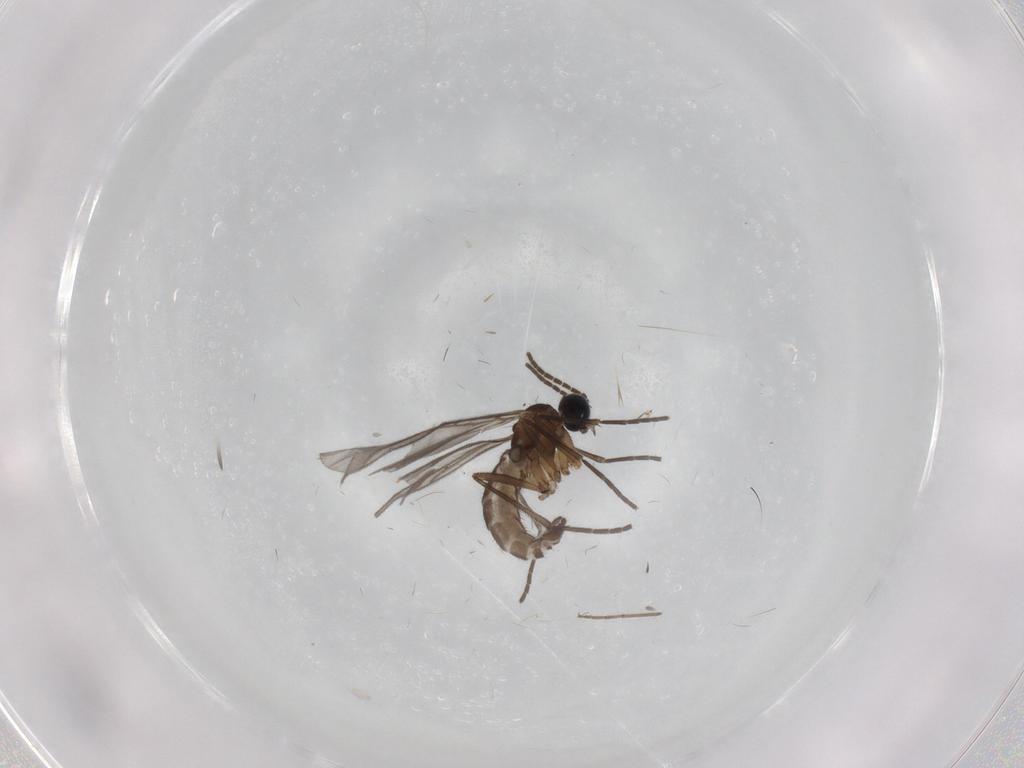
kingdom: Animalia
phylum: Arthropoda
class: Insecta
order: Diptera
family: Sciaridae
